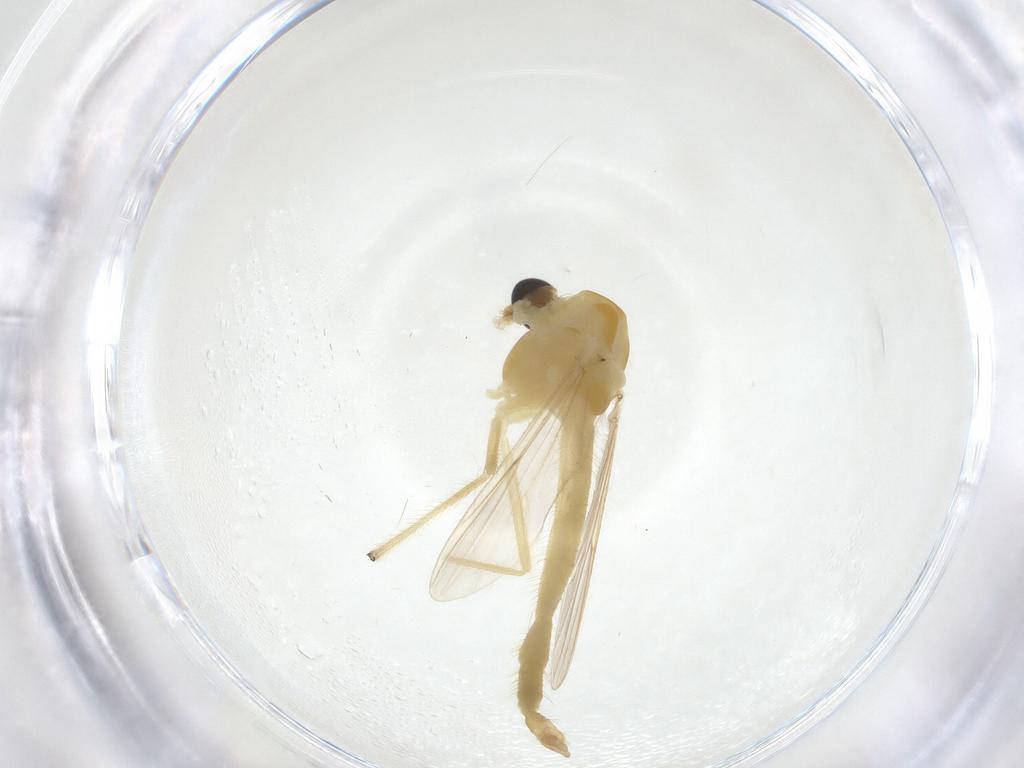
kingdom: Animalia
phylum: Arthropoda
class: Insecta
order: Diptera
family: Chironomidae
